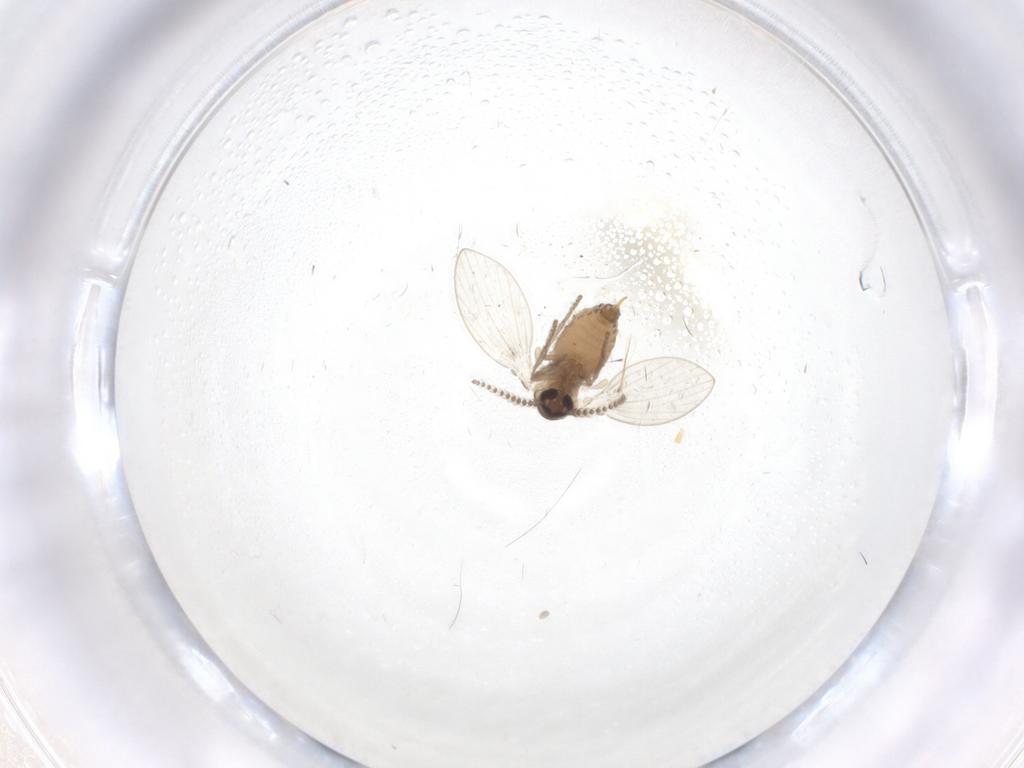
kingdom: Animalia
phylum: Arthropoda
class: Insecta
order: Diptera
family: Psychodidae
